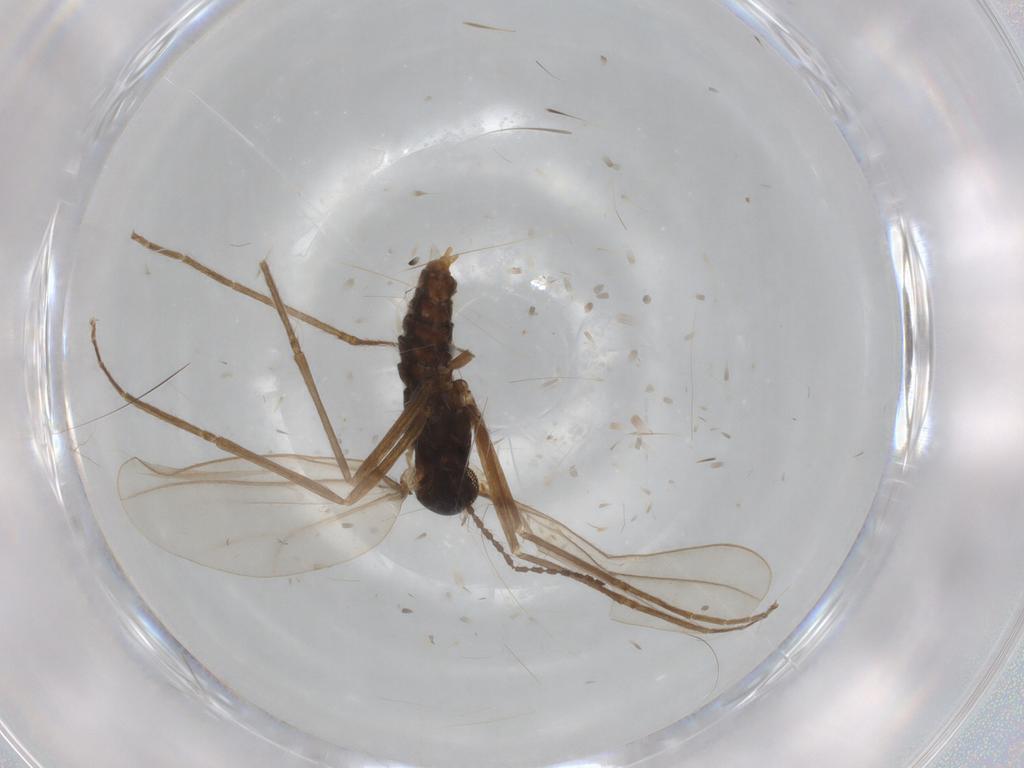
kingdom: Animalia
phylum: Arthropoda
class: Insecta
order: Diptera
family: Cecidomyiidae
